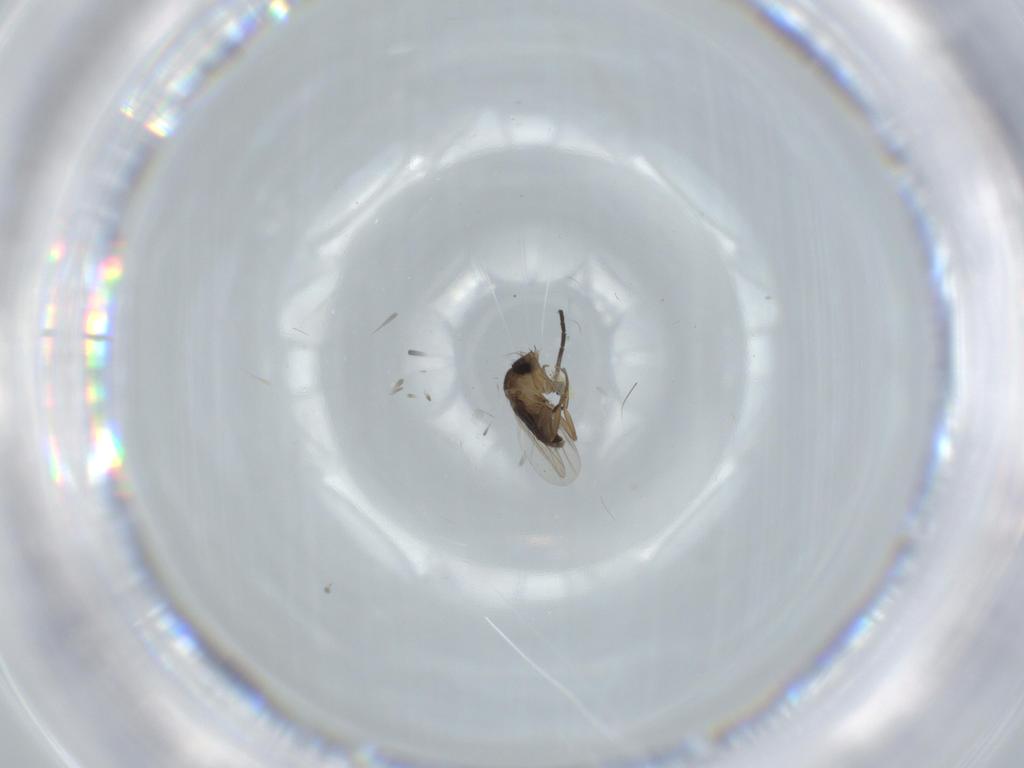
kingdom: Animalia
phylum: Arthropoda
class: Insecta
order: Diptera
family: Phoridae
